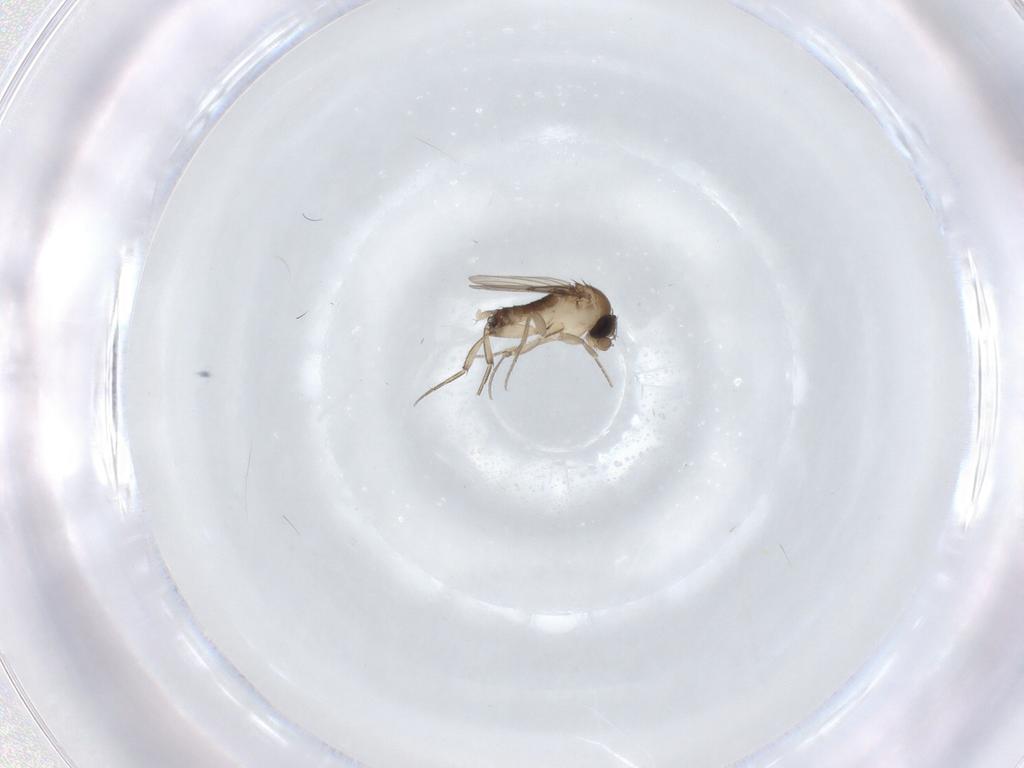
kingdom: Animalia
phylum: Arthropoda
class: Insecta
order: Diptera
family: Phoridae
